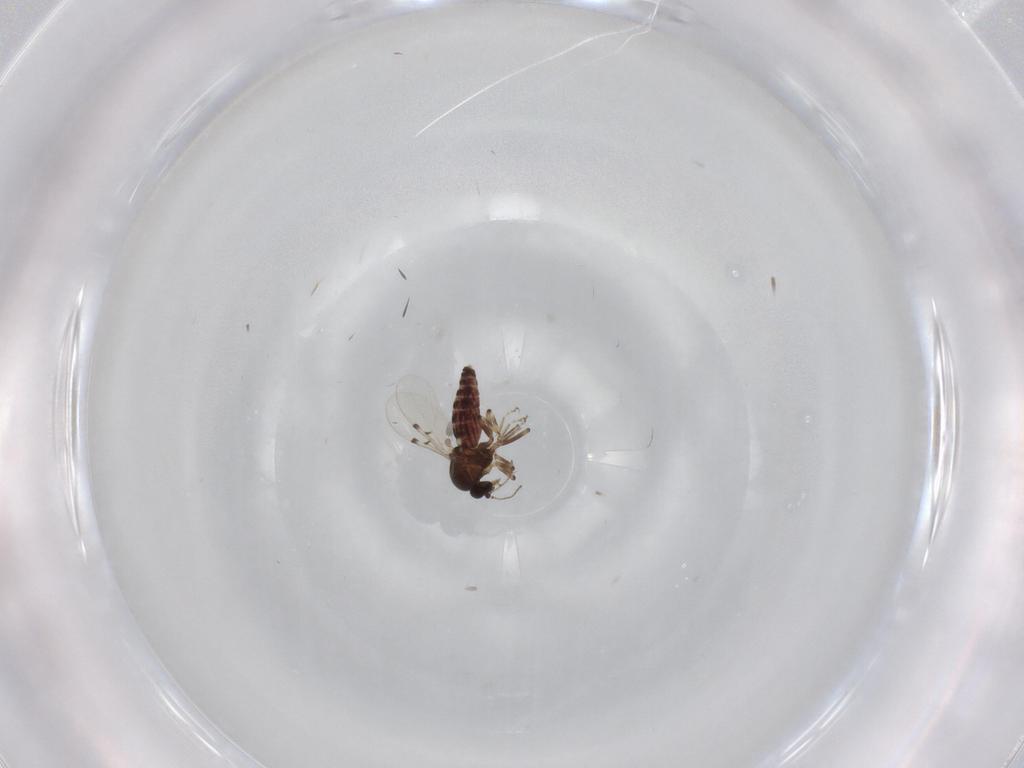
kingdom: Animalia
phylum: Arthropoda
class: Insecta
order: Diptera
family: Ceratopogonidae
